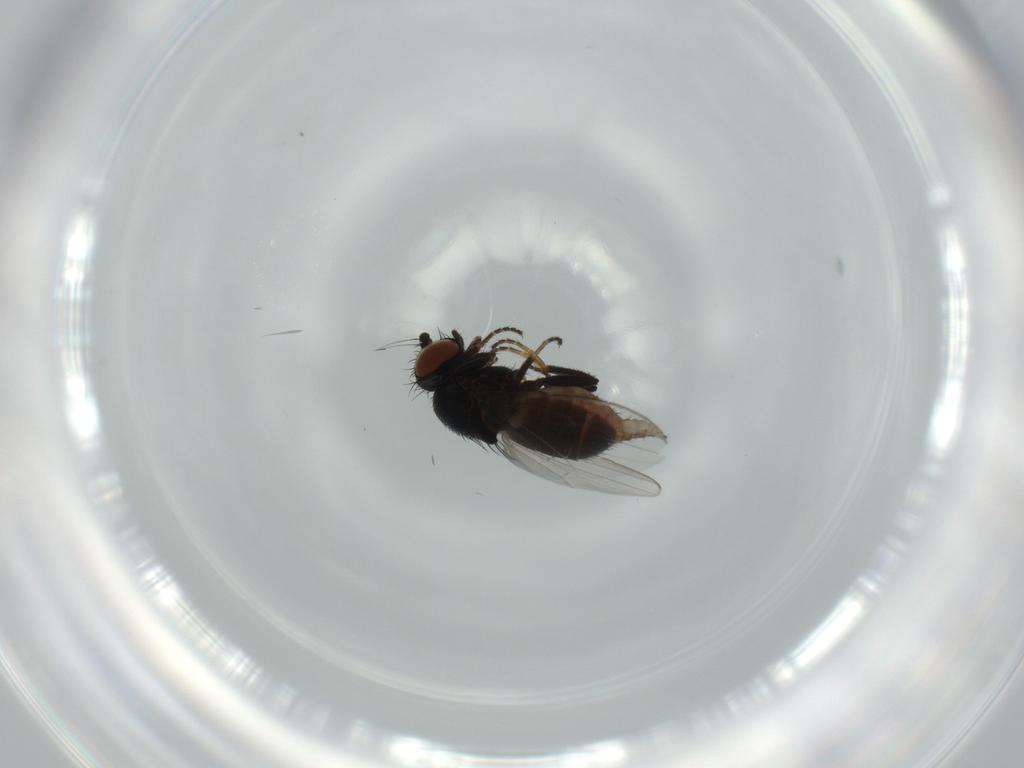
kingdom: Animalia
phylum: Arthropoda
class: Insecta
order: Diptera
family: Milichiidae
